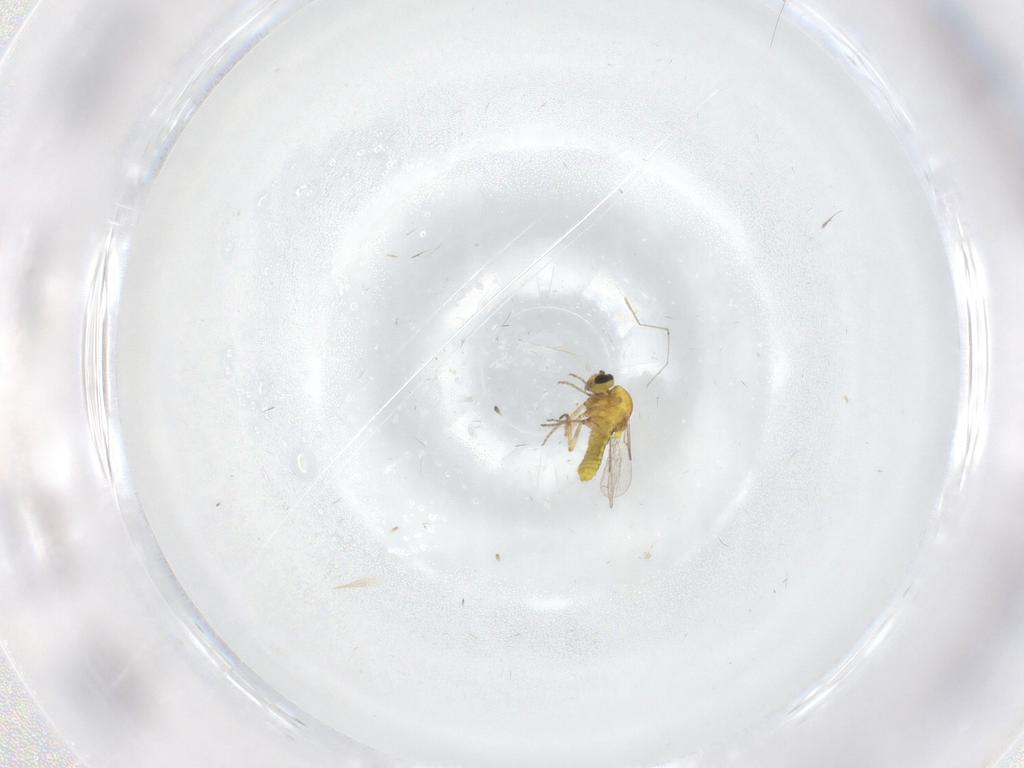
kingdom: Animalia
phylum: Arthropoda
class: Insecta
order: Diptera
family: Cecidomyiidae
